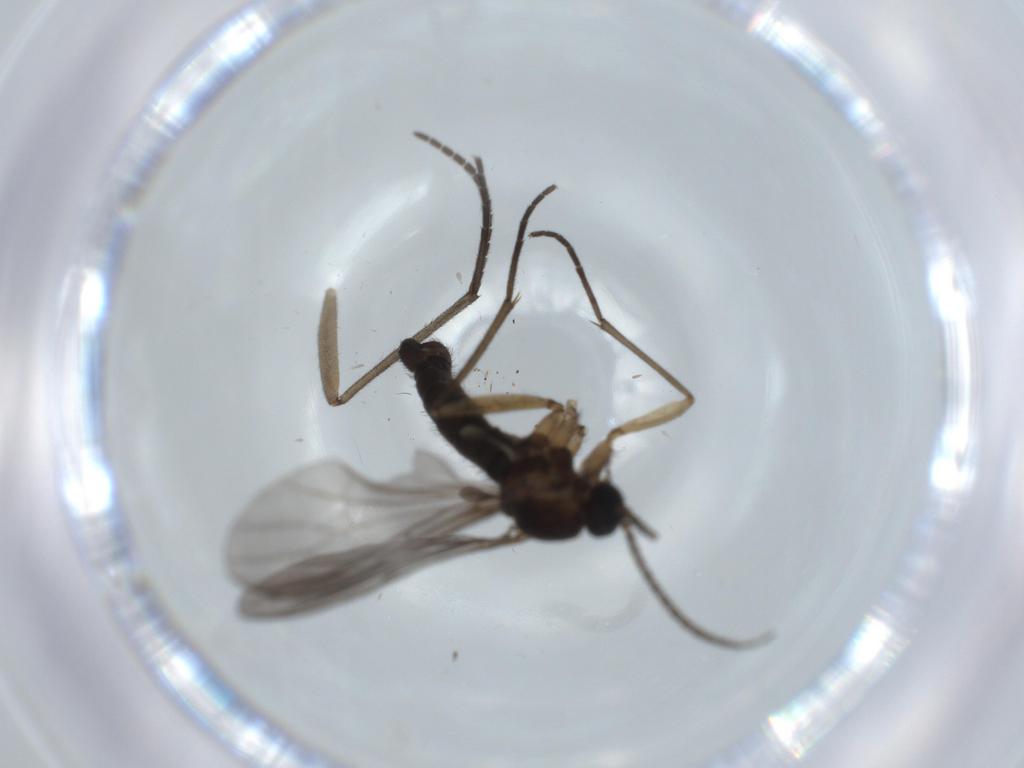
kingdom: Animalia
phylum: Arthropoda
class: Insecta
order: Diptera
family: Sciaridae
